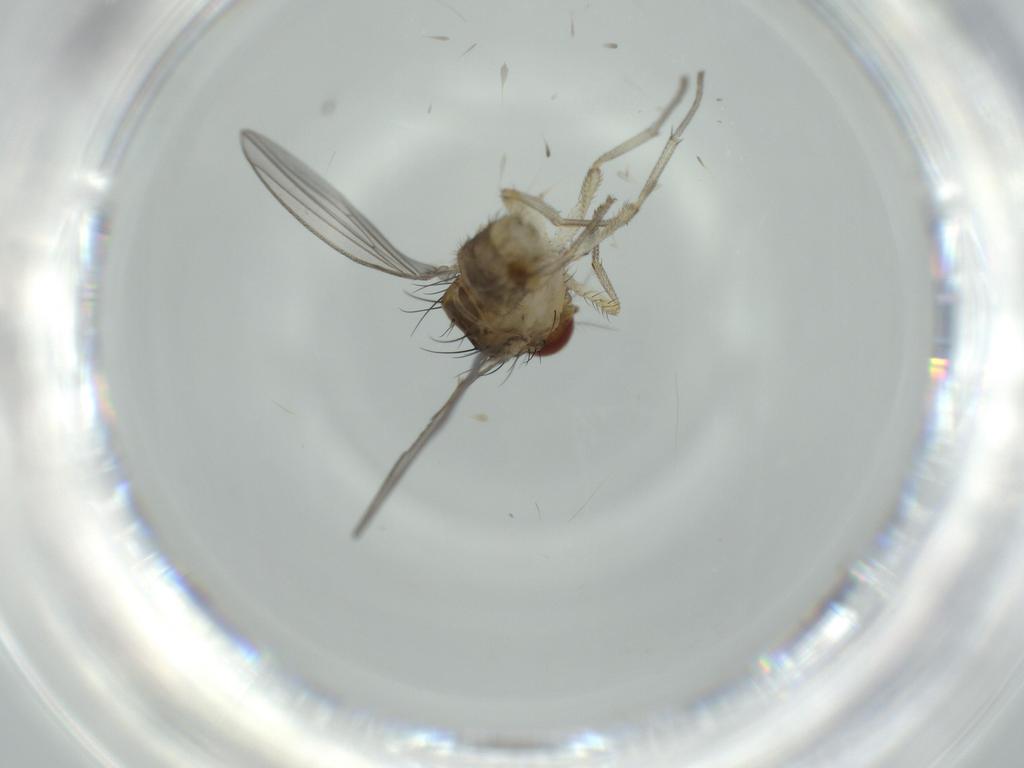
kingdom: Animalia
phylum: Arthropoda
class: Insecta
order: Diptera
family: Lauxaniidae
